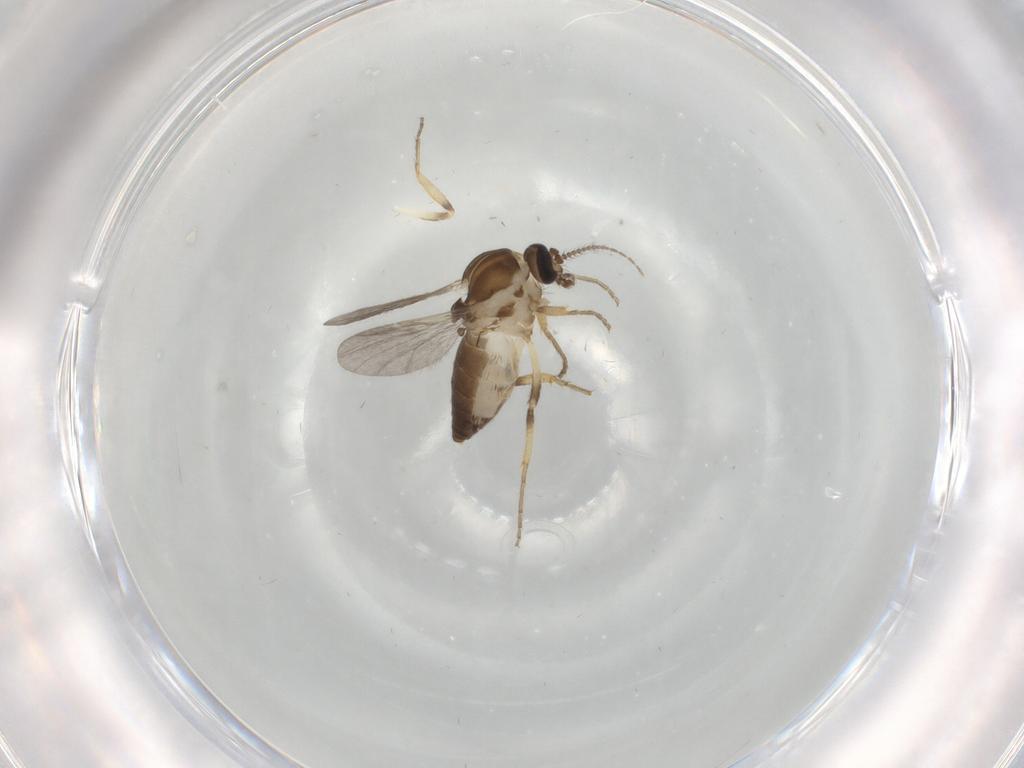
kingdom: Animalia
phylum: Arthropoda
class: Insecta
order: Diptera
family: Ceratopogonidae
